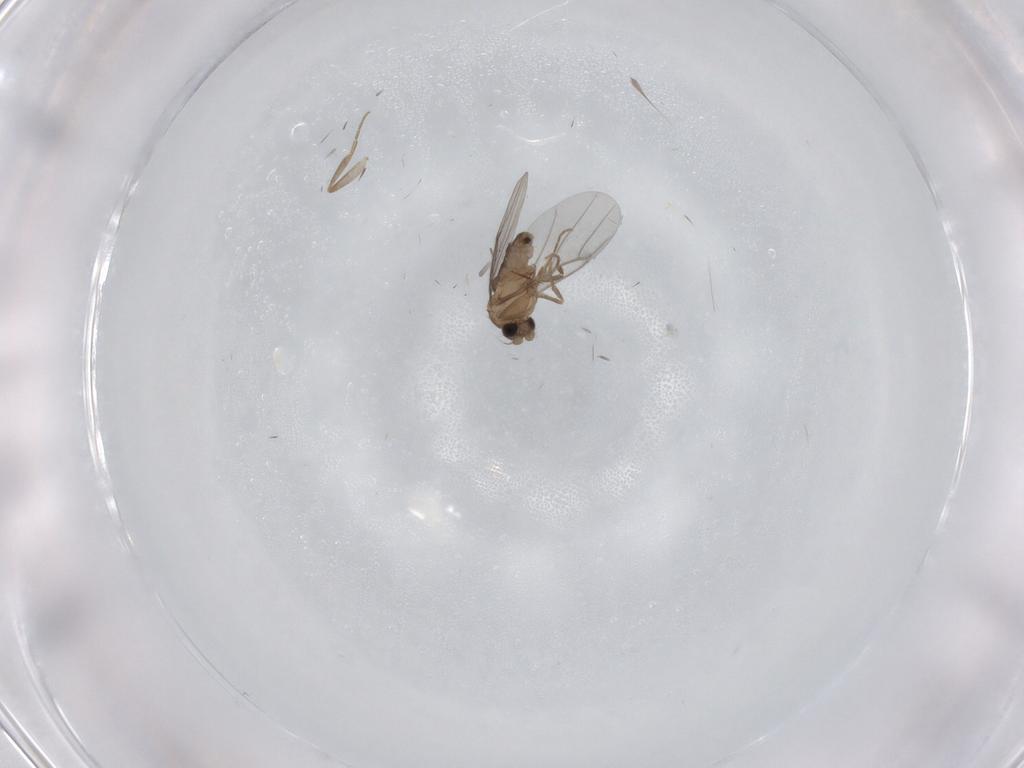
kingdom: Animalia
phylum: Arthropoda
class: Insecta
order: Diptera
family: Ceratopogonidae
